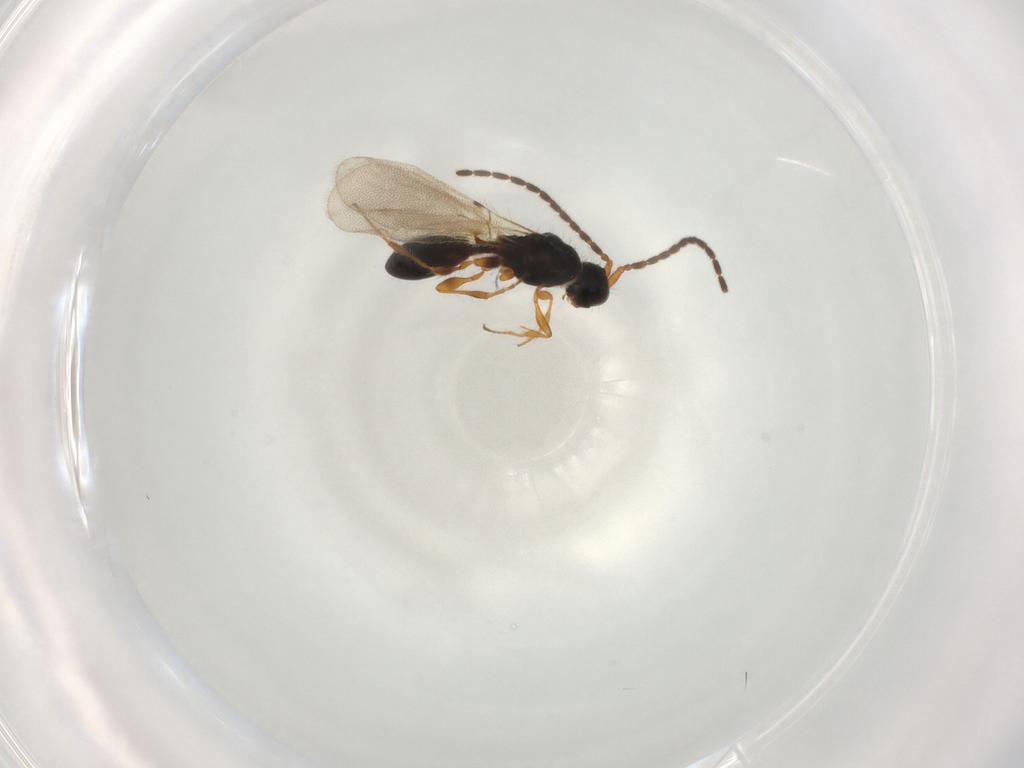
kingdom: Animalia
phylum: Arthropoda
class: Insecta
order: Hymenoptera
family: Diapriidae
